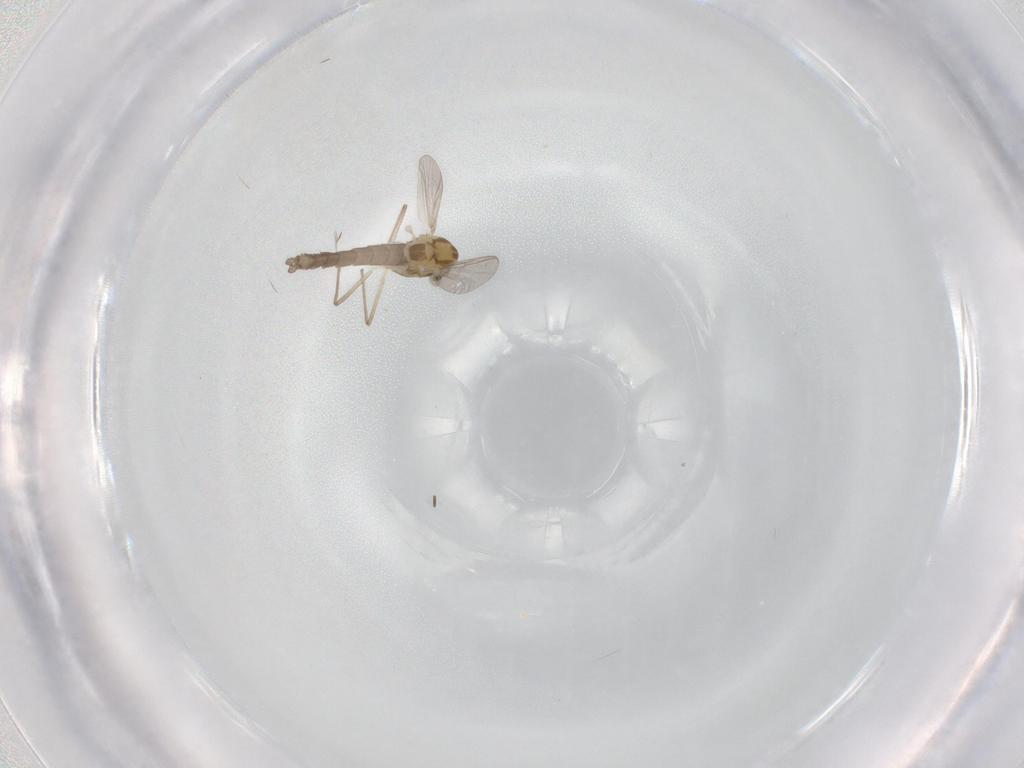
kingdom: Animalia
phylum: Arthropoda
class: Insecta
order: Diptera
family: Chironomidae
